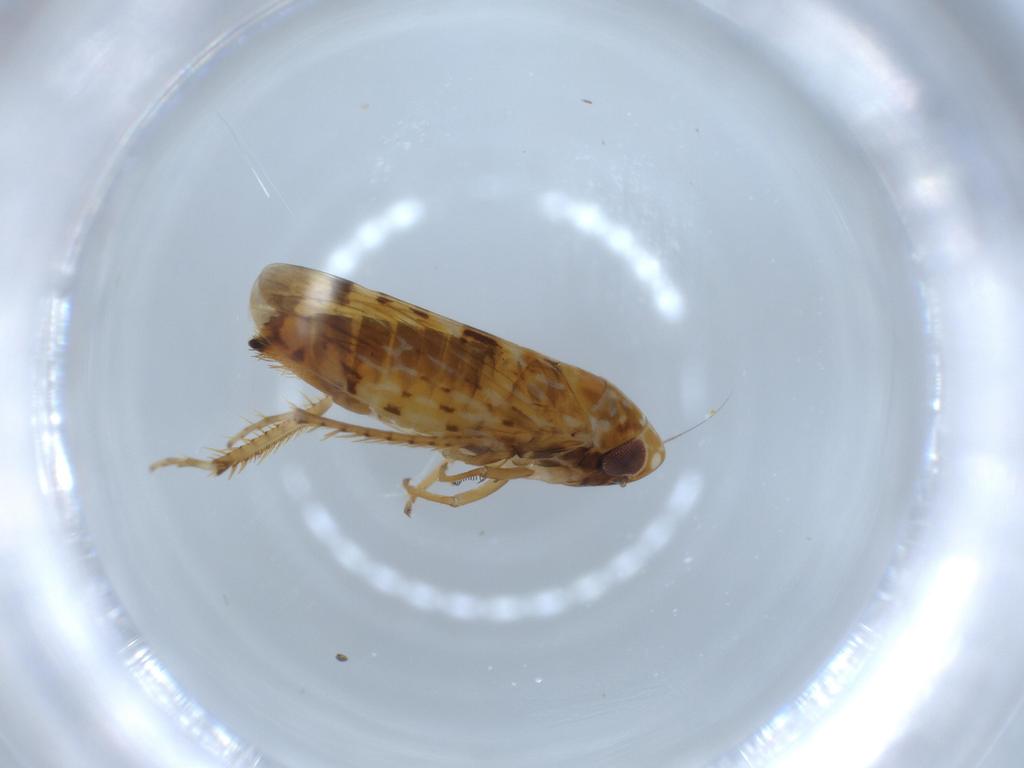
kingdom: Animalia
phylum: Arthropoda
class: Insecta
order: Hemiptera
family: Cicadellidae
